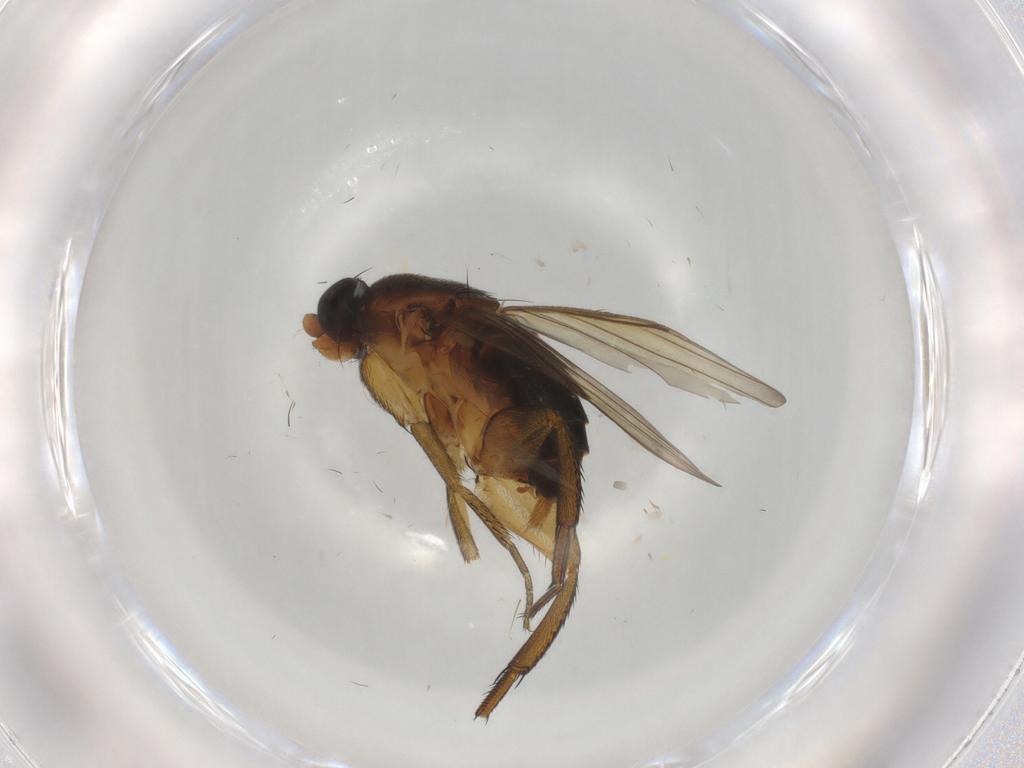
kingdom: Animalia
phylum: Arthropoda
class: Insecta
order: Diptera
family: Phoridae
